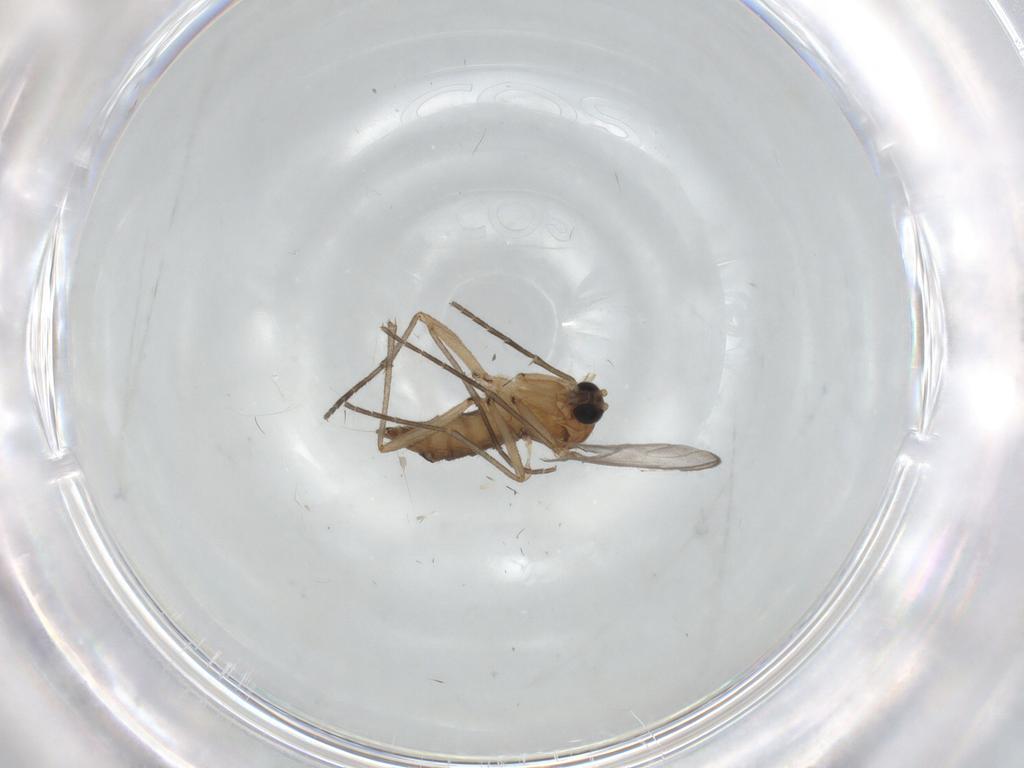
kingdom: Animalia
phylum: Arthropoda
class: Insecta
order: Diptera
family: Sciaridae
